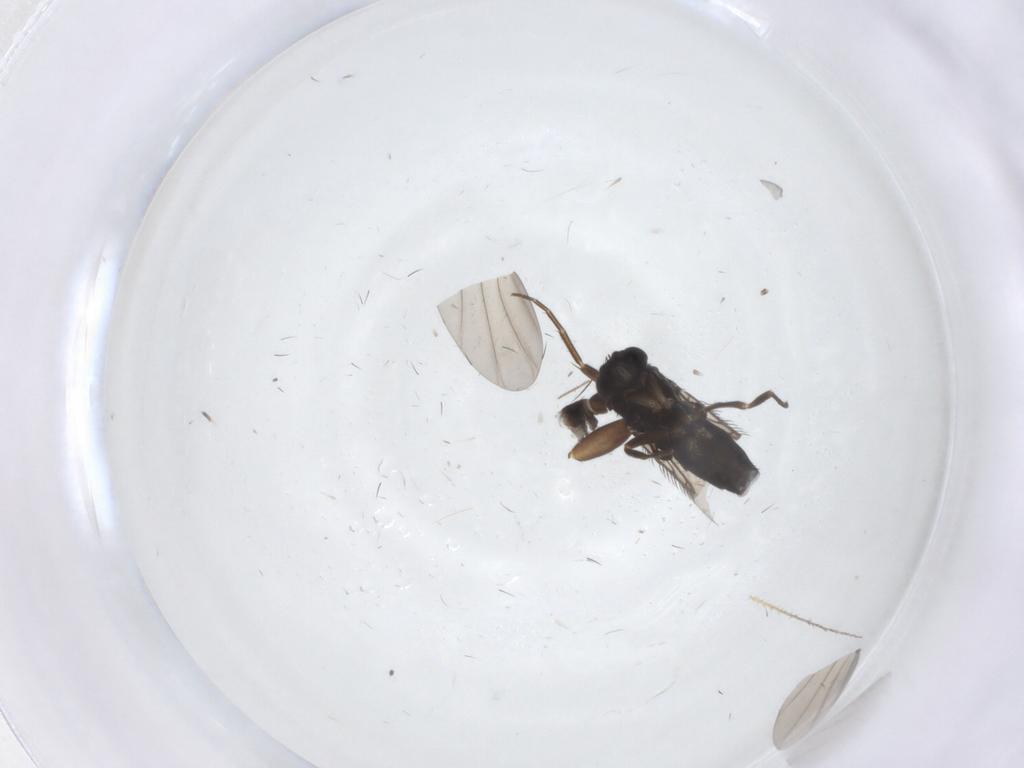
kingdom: Animalia
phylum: Arthropoda
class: Insecta
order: Diptera
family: Phoridae
